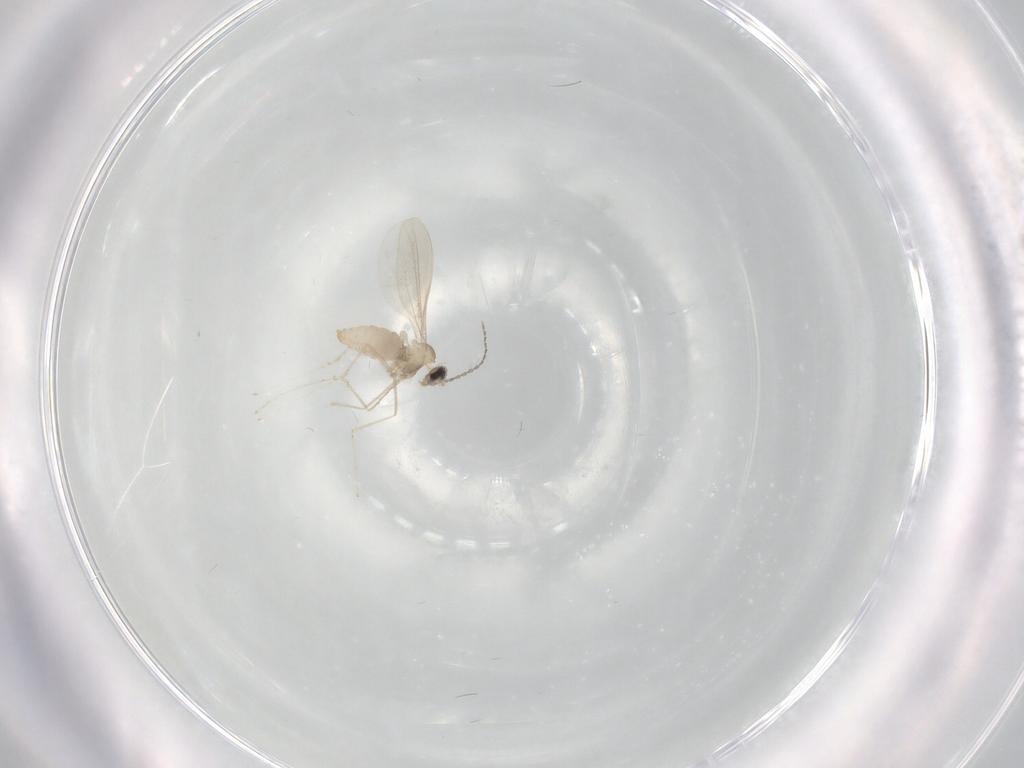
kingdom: Animalia
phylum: Arthropoda
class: Insecta
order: Diptera
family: Cecidomyiidae
